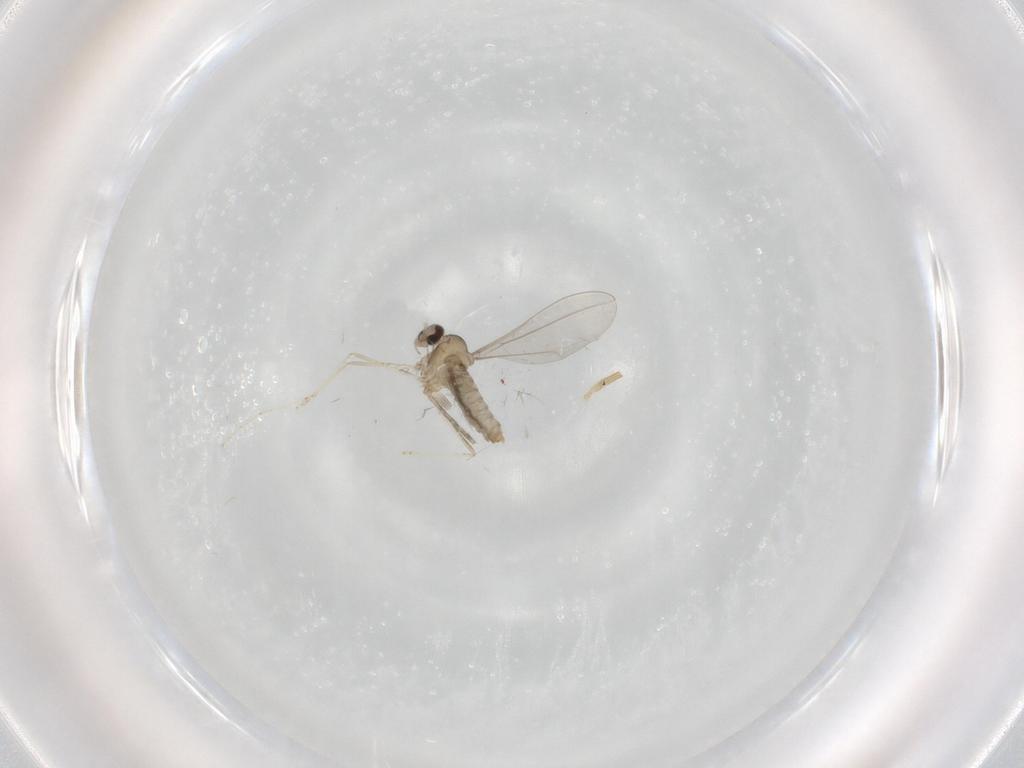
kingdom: Animalia
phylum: Arthropoda
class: Insecta
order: Diptera
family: Cecidomyiidae
